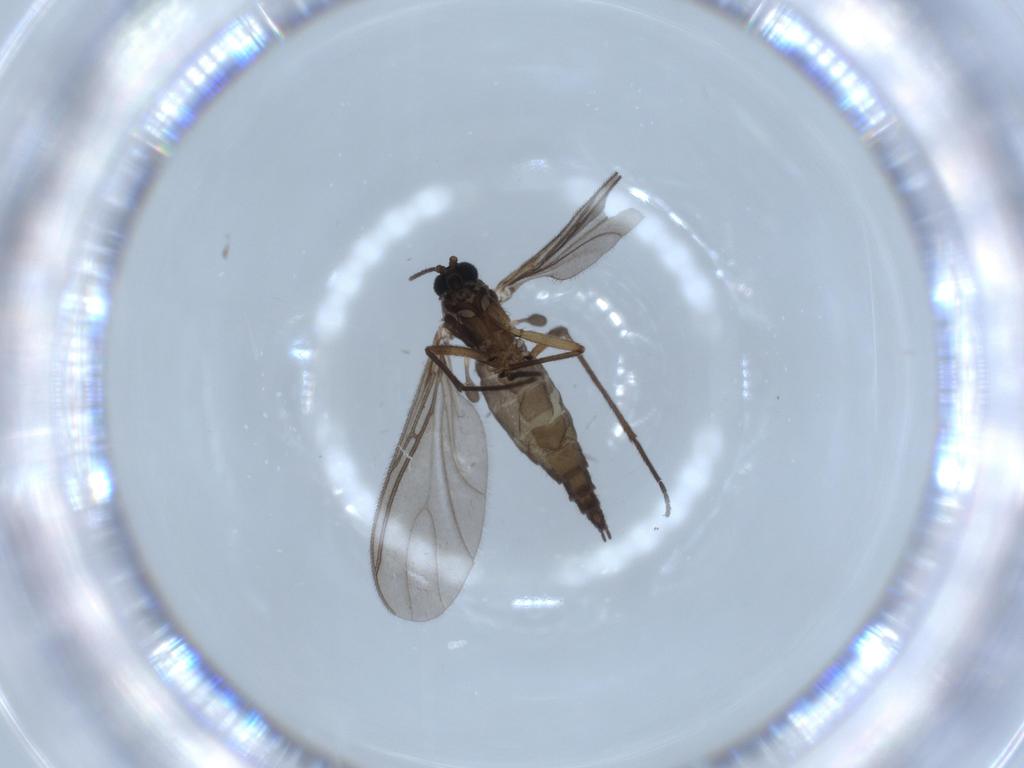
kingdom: Animalia
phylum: Arthropoda
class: Insecta
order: Diptera
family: Sciaridae
